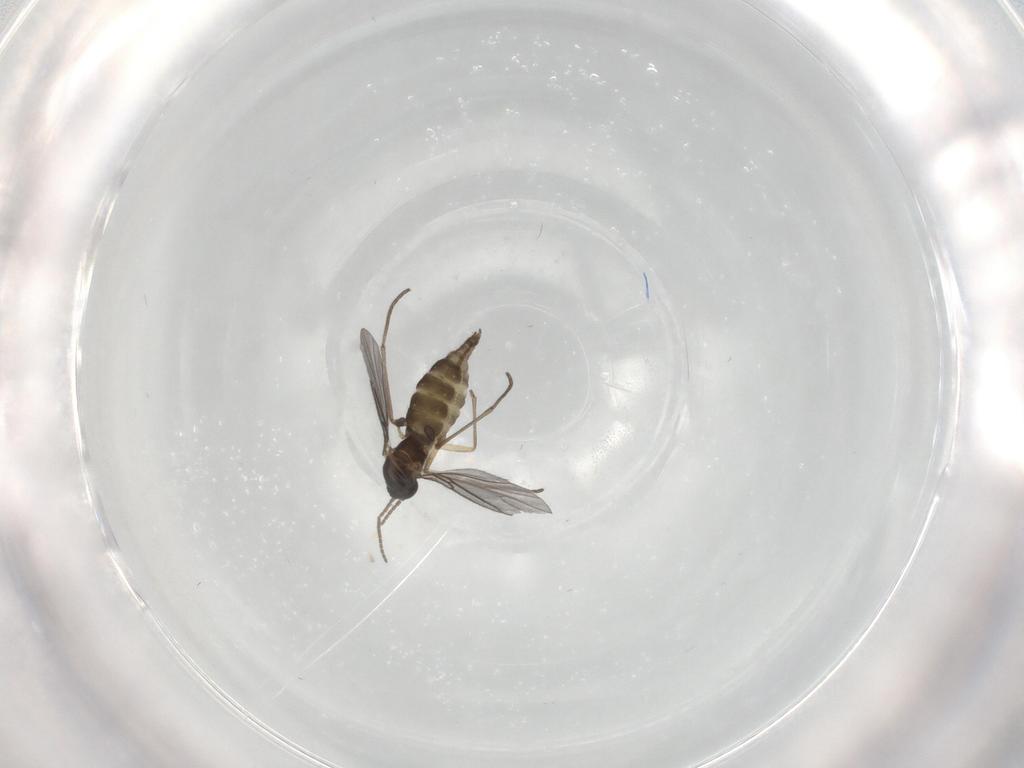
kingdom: Animalia
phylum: Arthropoda
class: Insecta
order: Diptera
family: Sciaridae
